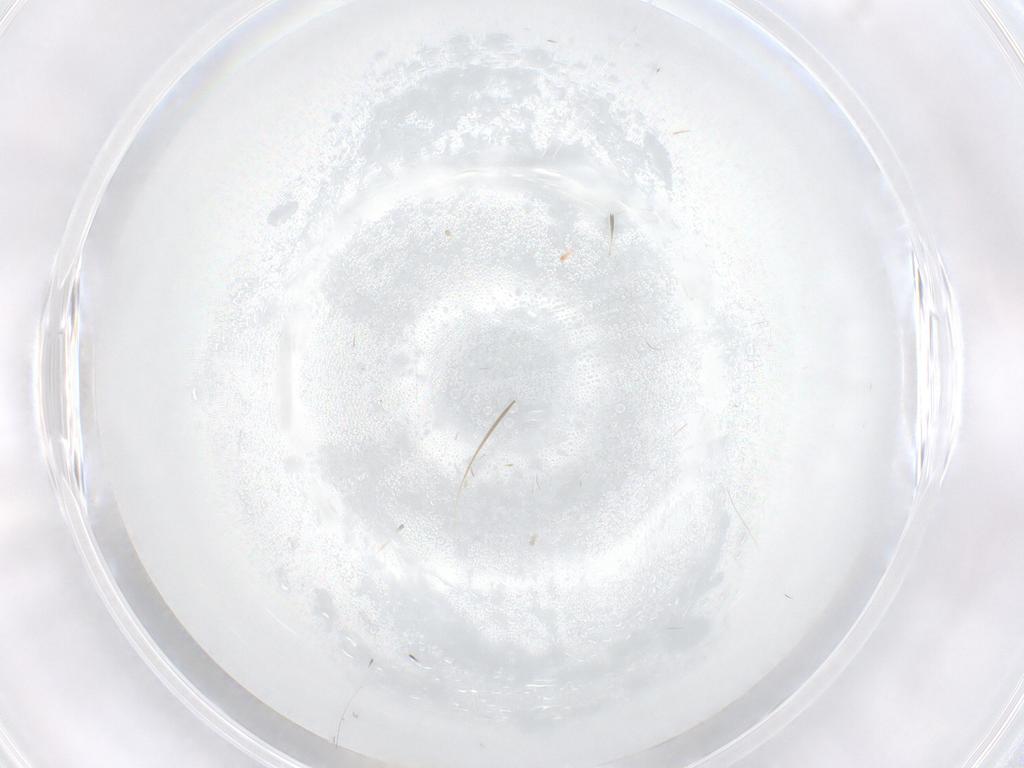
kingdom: Animalia
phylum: Arthropoda
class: Insecta
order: Hemiptera
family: Aleyrodidae
